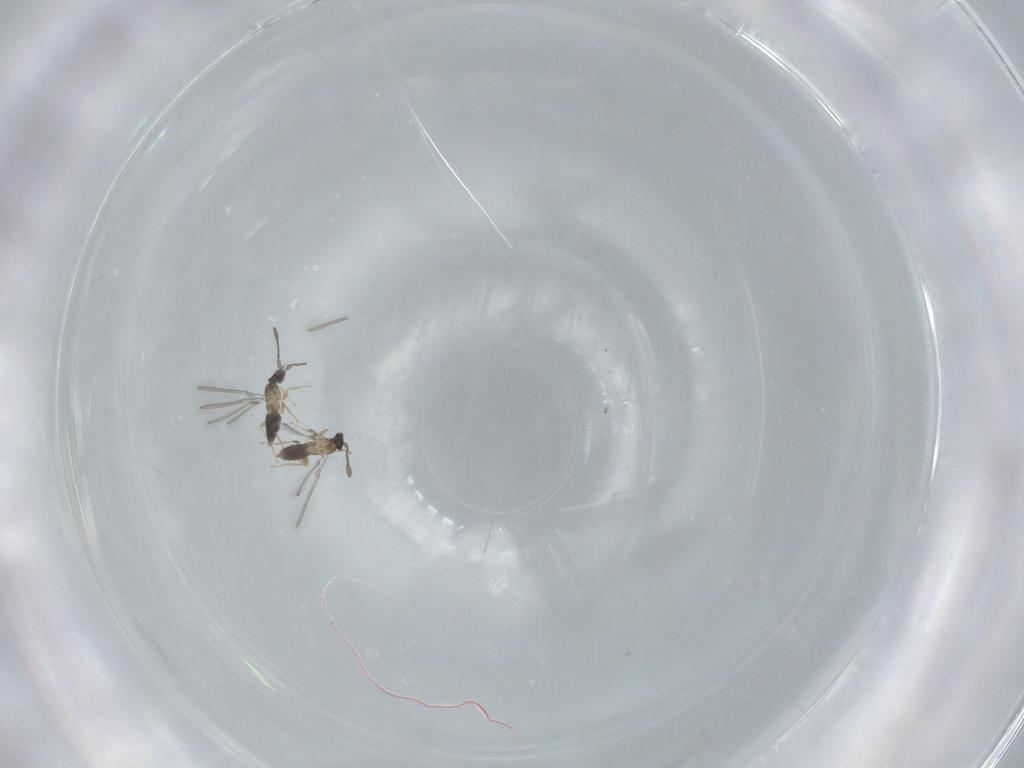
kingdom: Animalia
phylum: Arthropoda
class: Insecta
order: Hymenoptera
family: Mymaridae
